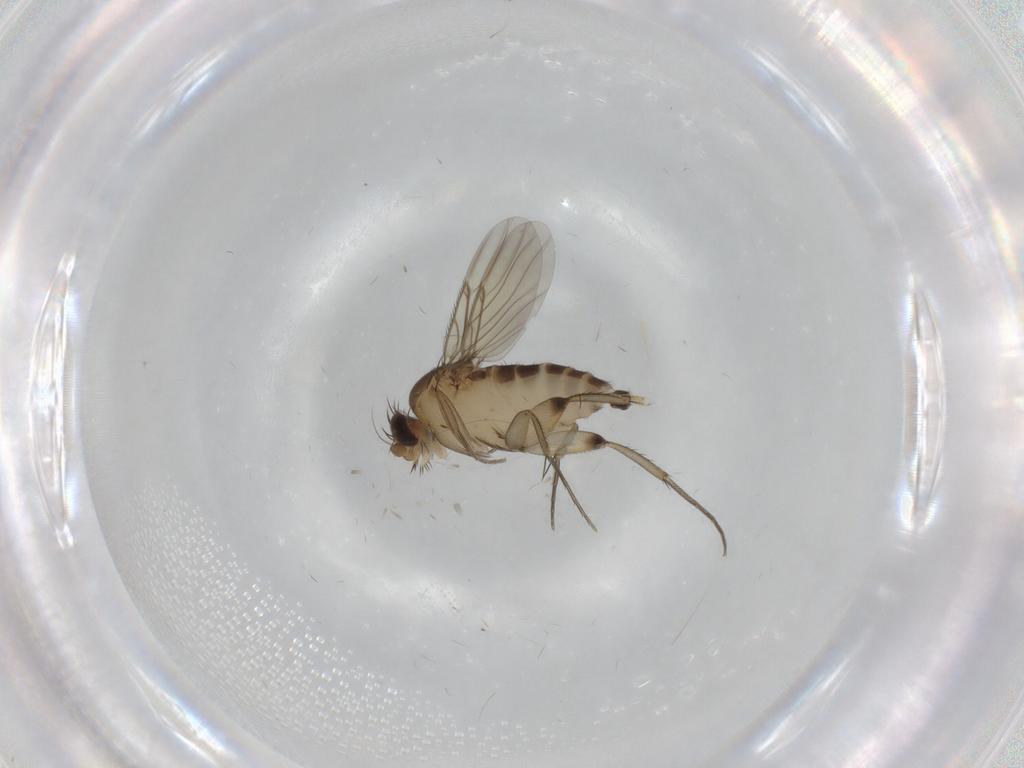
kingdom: Animalia
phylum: Arthropoda
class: Insecta
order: Diptera
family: Phoridae
